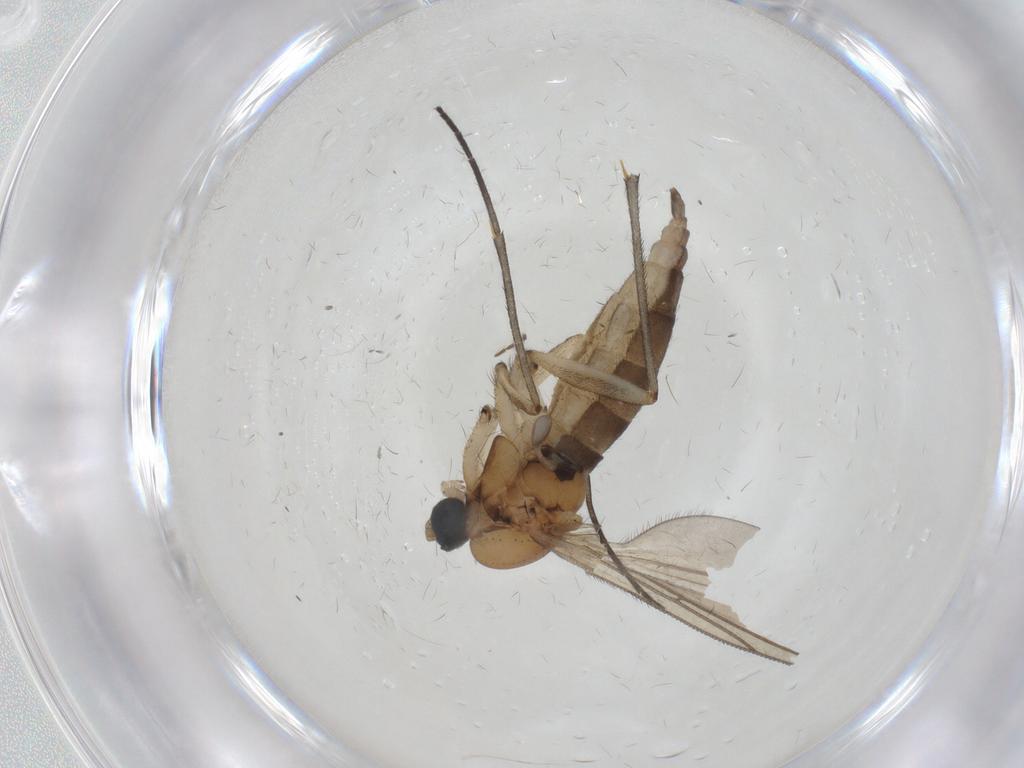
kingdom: Animalia
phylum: Arthropoda
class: Insecta
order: Diptera
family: Sciaridae
